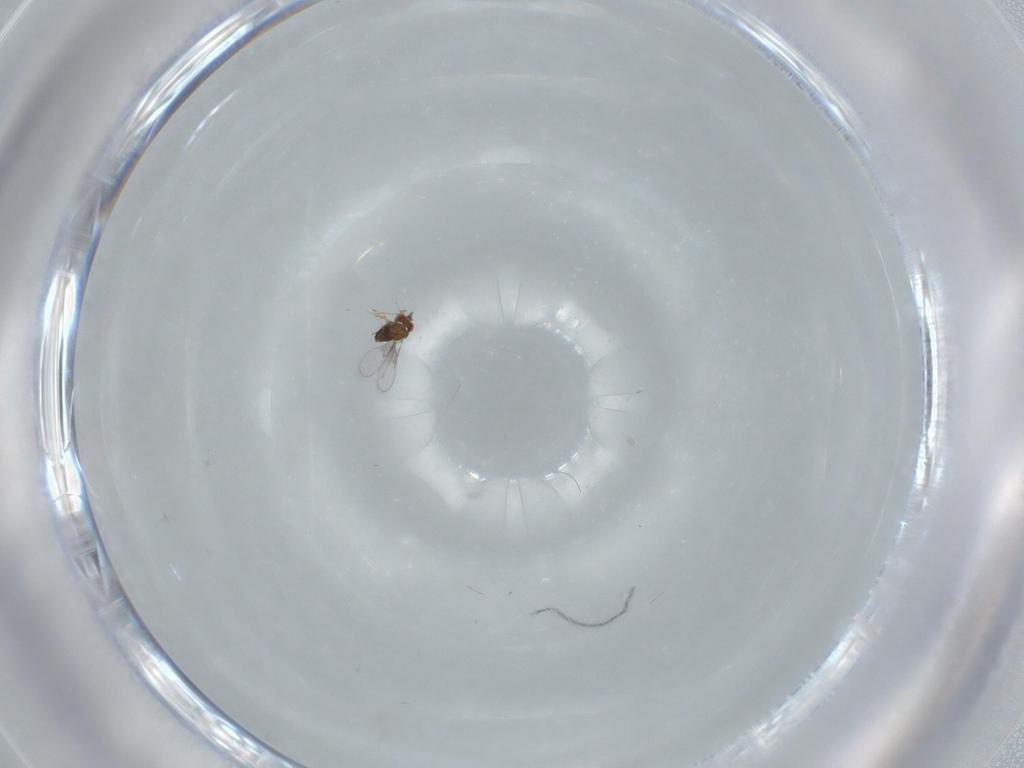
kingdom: Animalia
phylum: Arthropoda
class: Insecta
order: Hymenoptera
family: Trichogrammatidae
